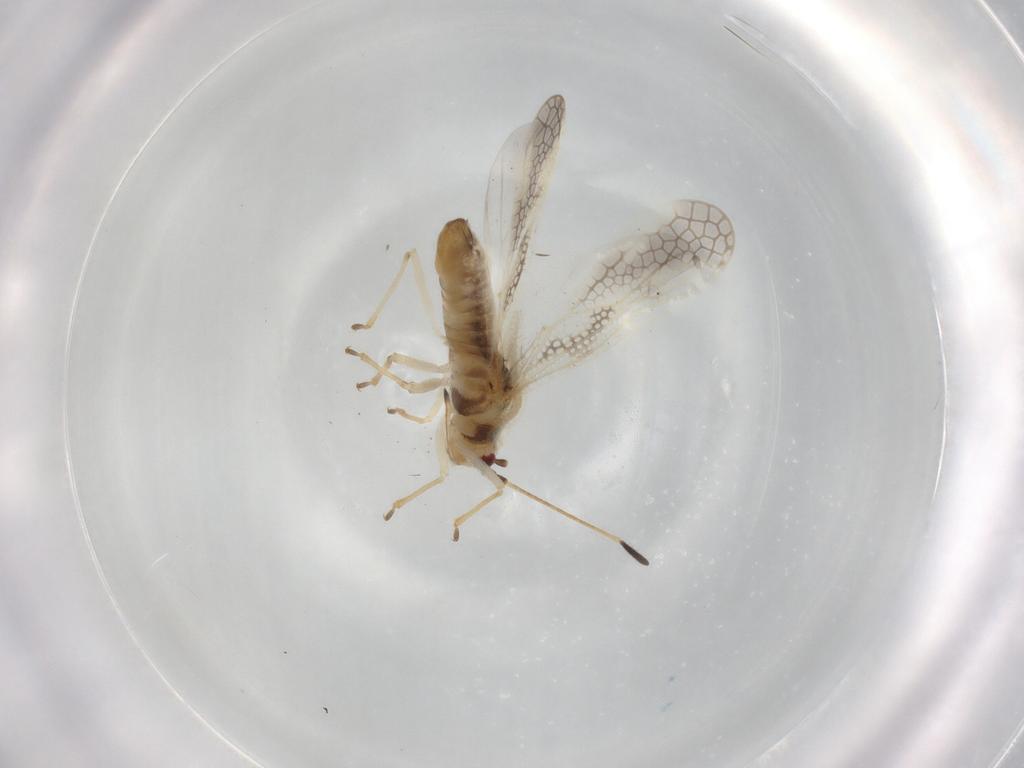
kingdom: Animalia
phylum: Arthropoda
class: Insecta
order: Hemiptera
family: Tingidae
